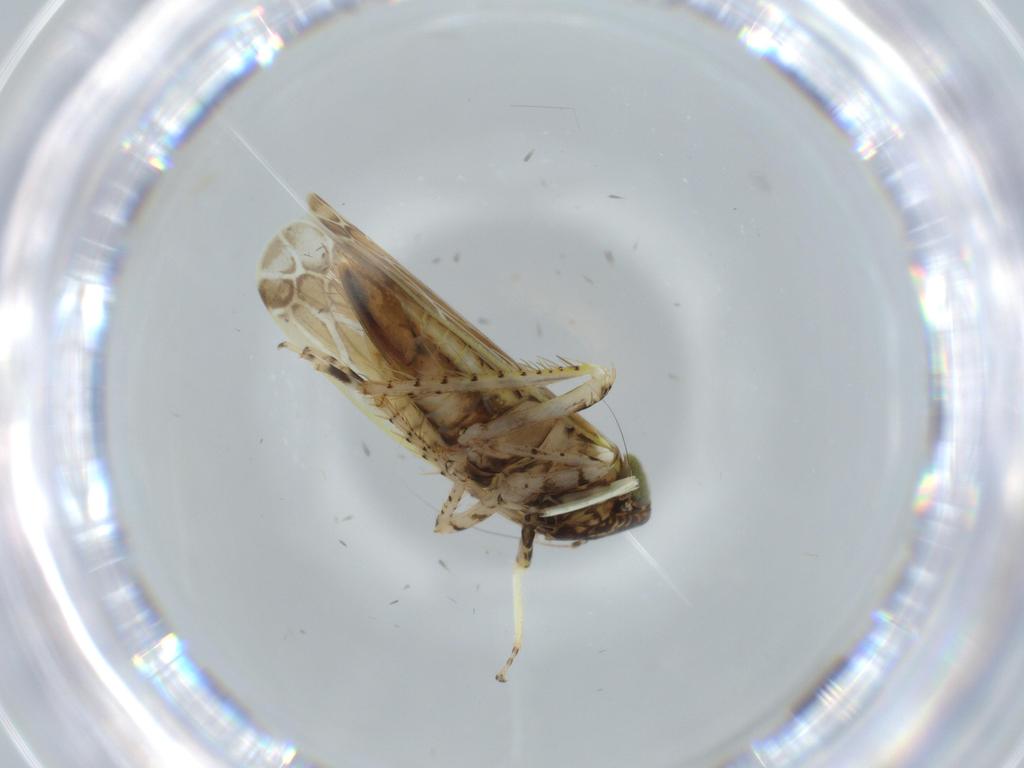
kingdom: Animalia
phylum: Arthropoda
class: Insecta
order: Hemiptera
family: Cicadellidae
